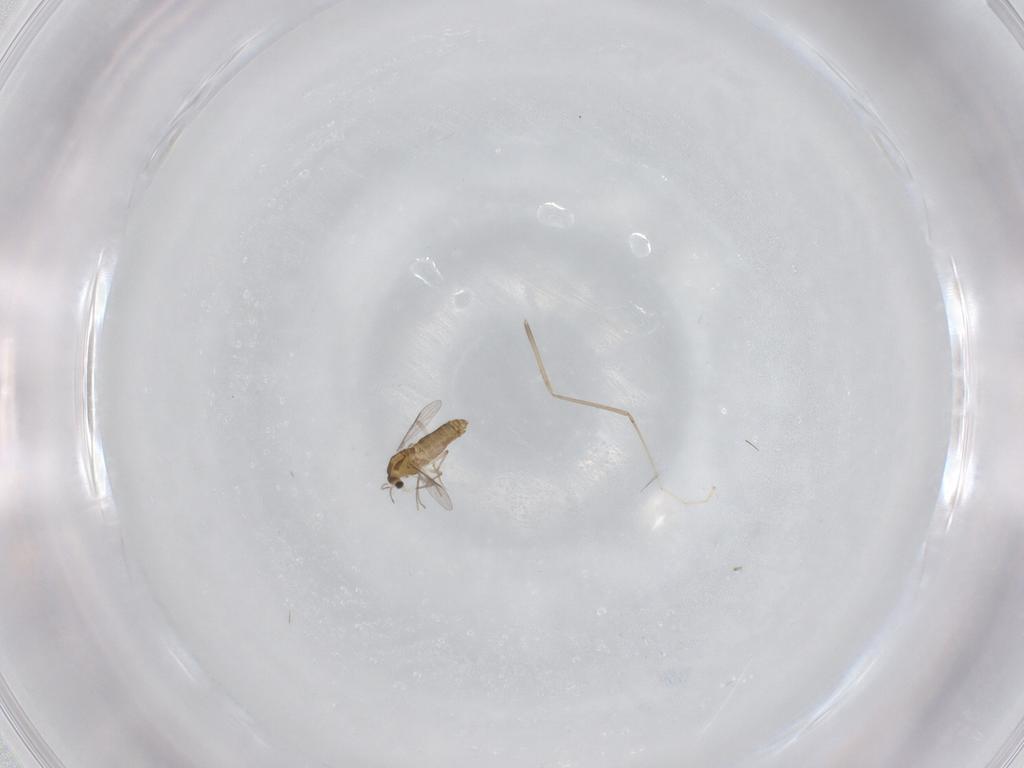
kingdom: Animalia
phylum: Arthropoda
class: Insecta
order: Diptera
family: Chironomidae
